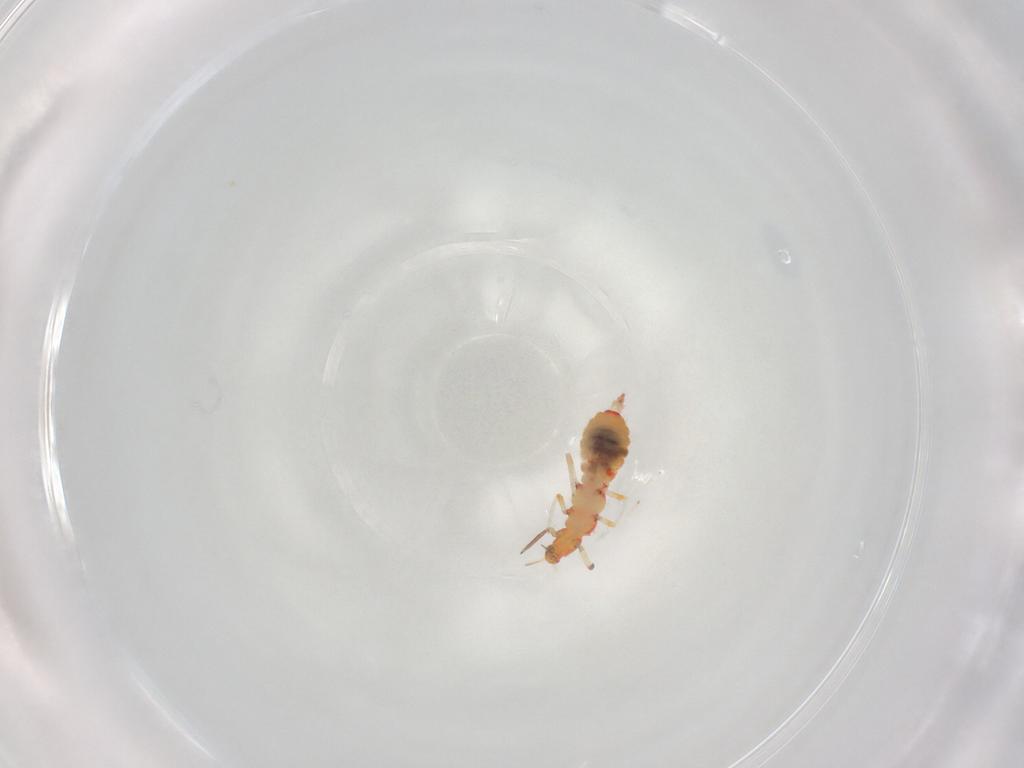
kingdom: Animalia
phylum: Arthropoda
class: Insecta
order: Thysanoptera
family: Aeolothripidae
